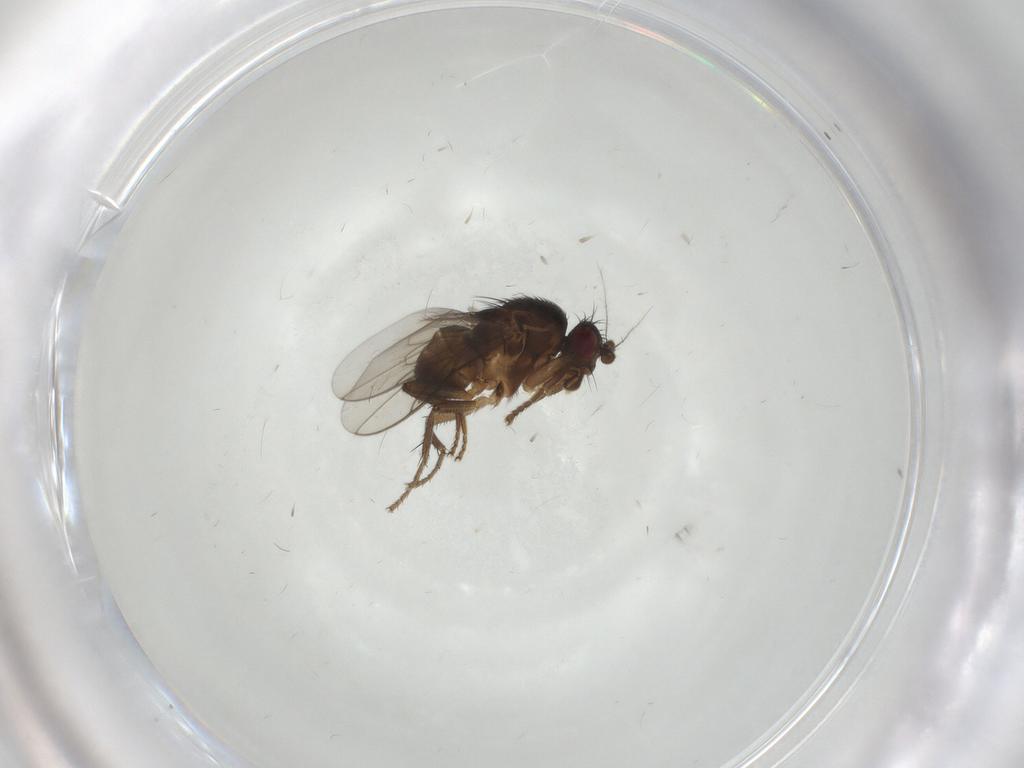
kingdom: Animalia
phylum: Arthropoda
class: Insecta
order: Diptera
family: Sphaeroceridae
